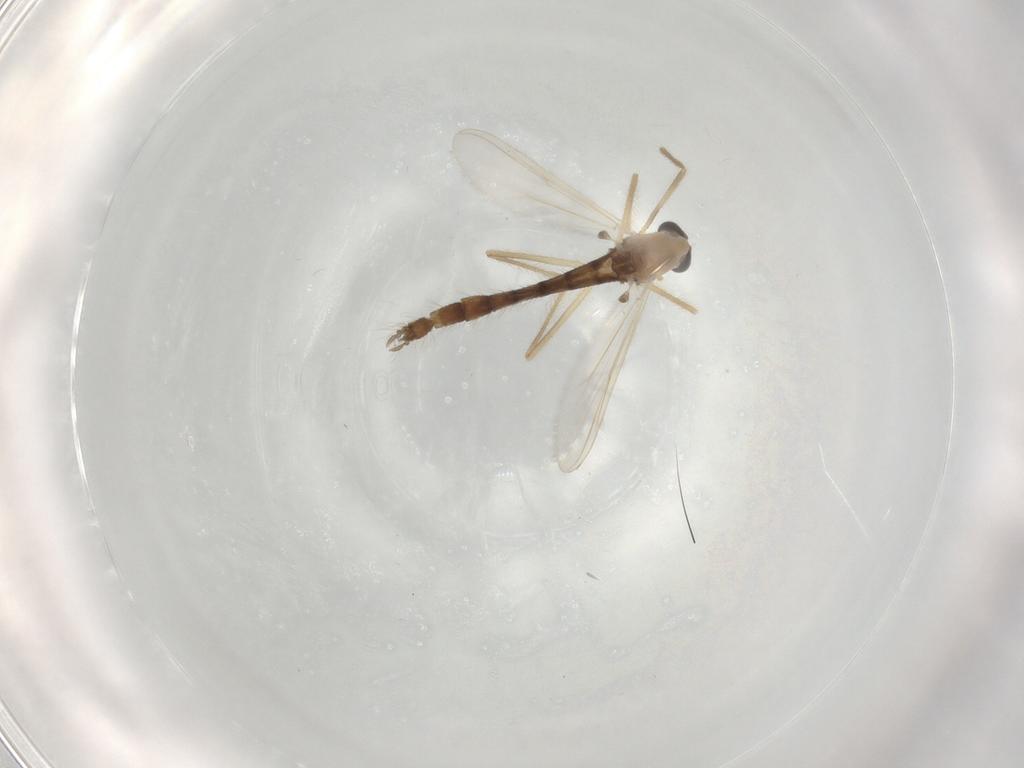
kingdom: Animalia
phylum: Arthropoda
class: Insecta
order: Diptera
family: Sciaridae
